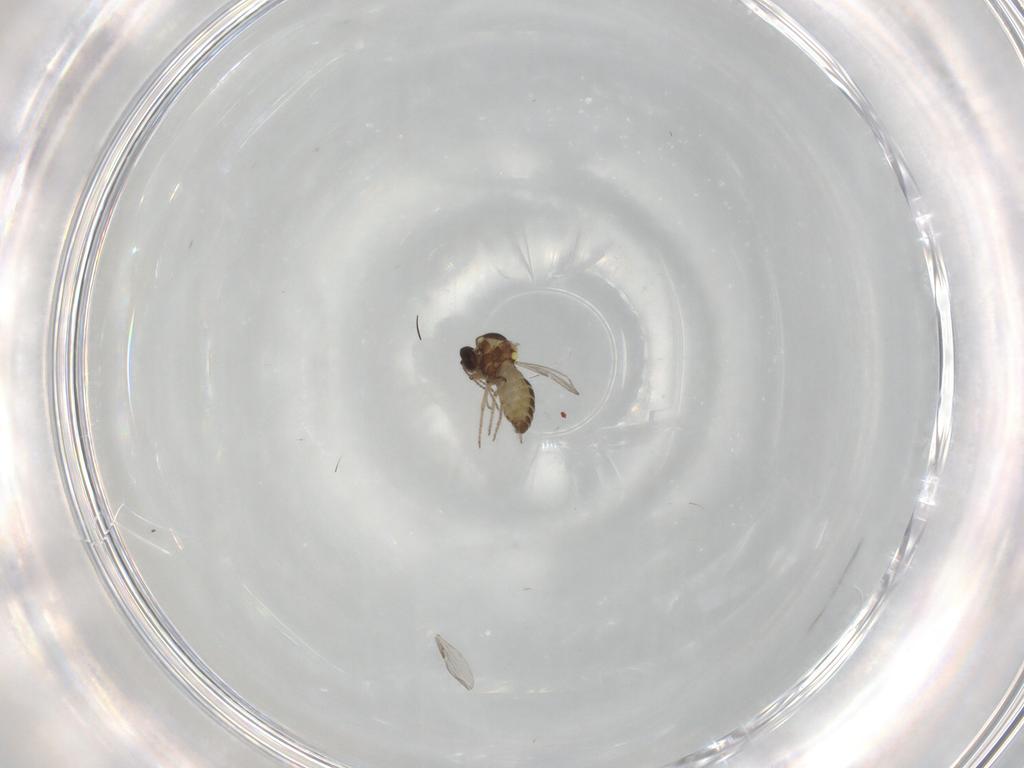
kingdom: Animalia
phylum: Arthropoda
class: Insecta
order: Diptera
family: Ceratopogonidae
